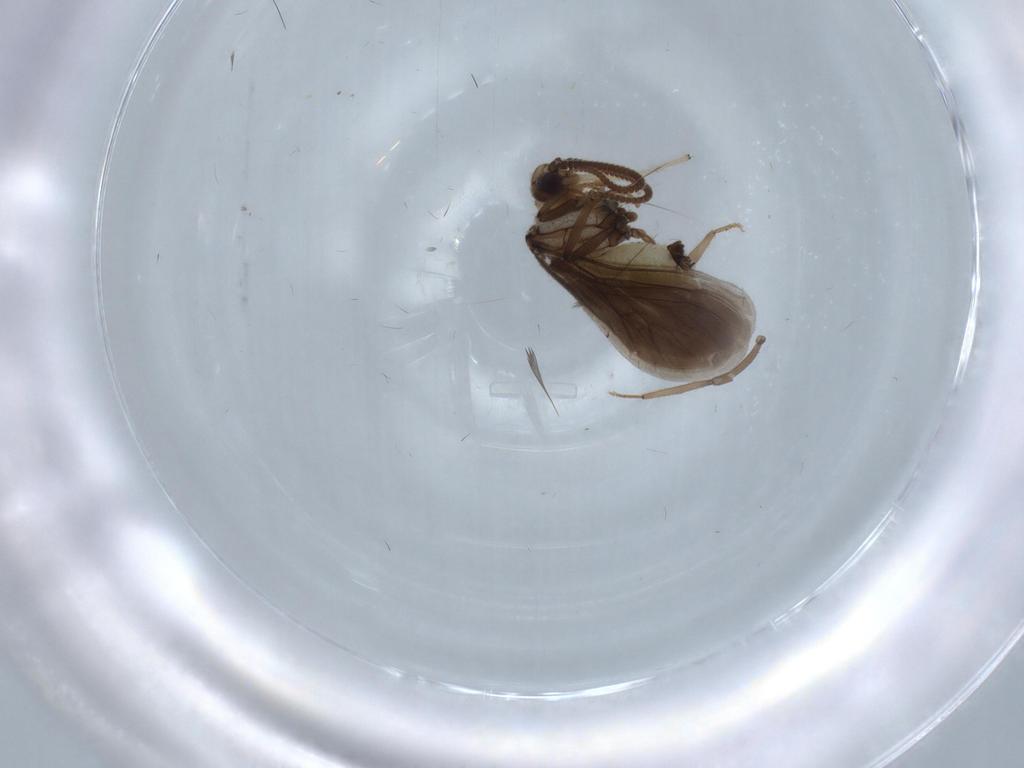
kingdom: Animalia
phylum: Arthropoda
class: Insecta
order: Neuroptera
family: Coniopterygidae
